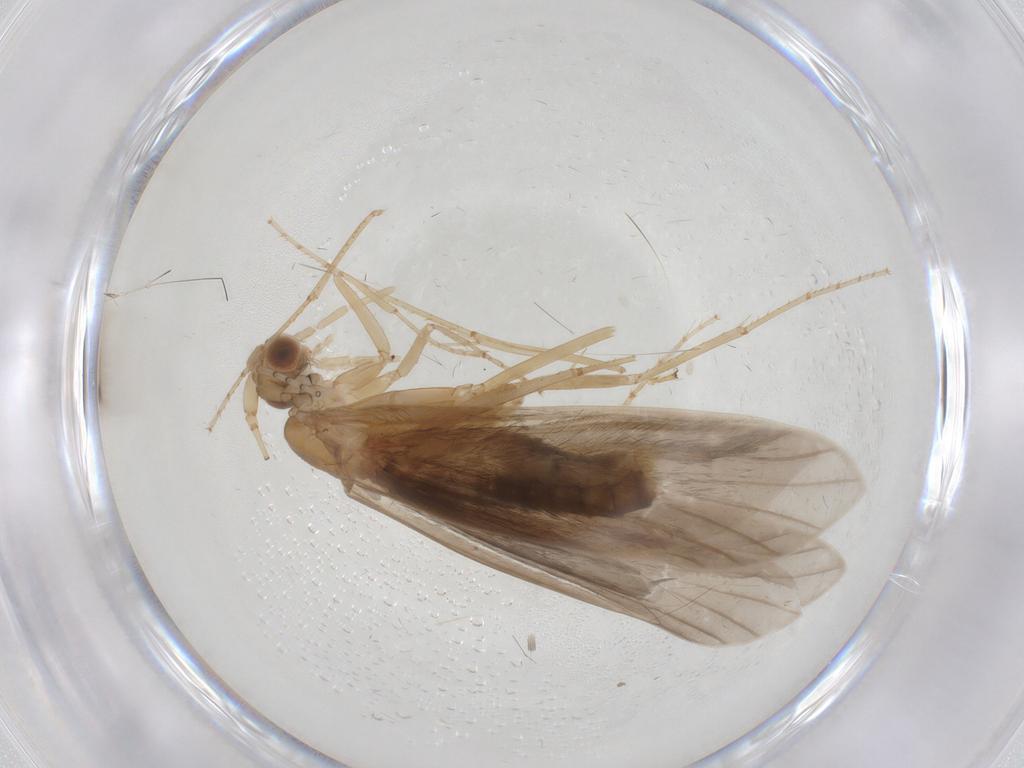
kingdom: Animalia
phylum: Arthropoda
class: Insecta
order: Trichoptera
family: Leptoceridae
